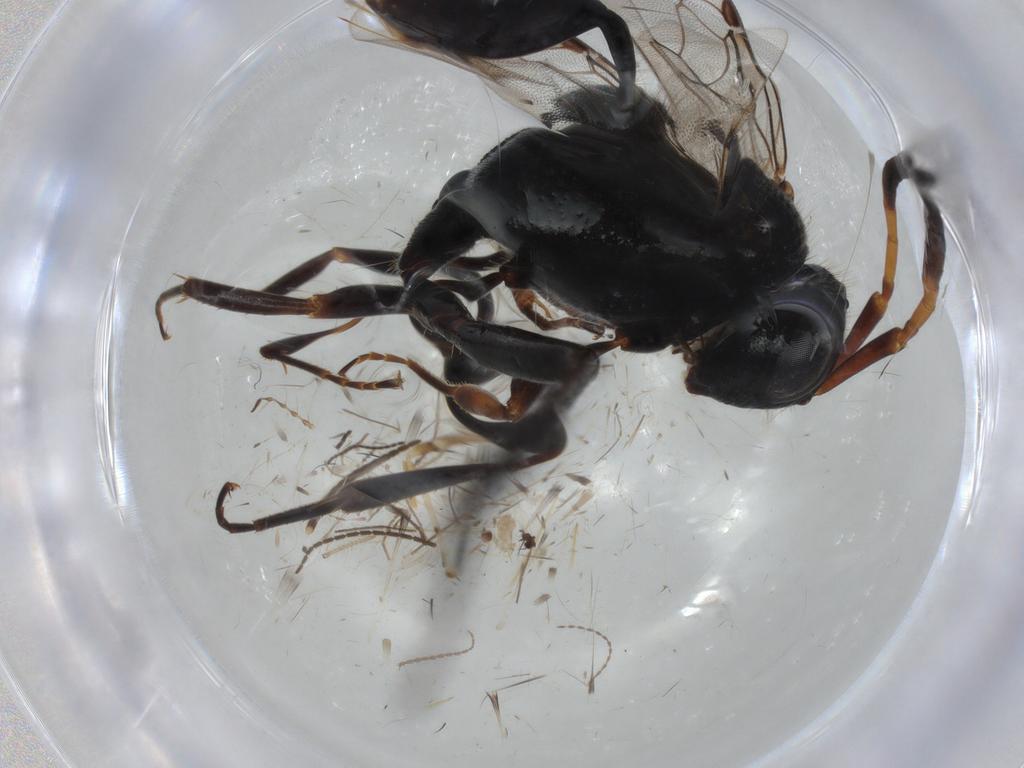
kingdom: Animalia
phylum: Arthropoda
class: Insecta
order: Hymenoptera
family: Evaniidae
